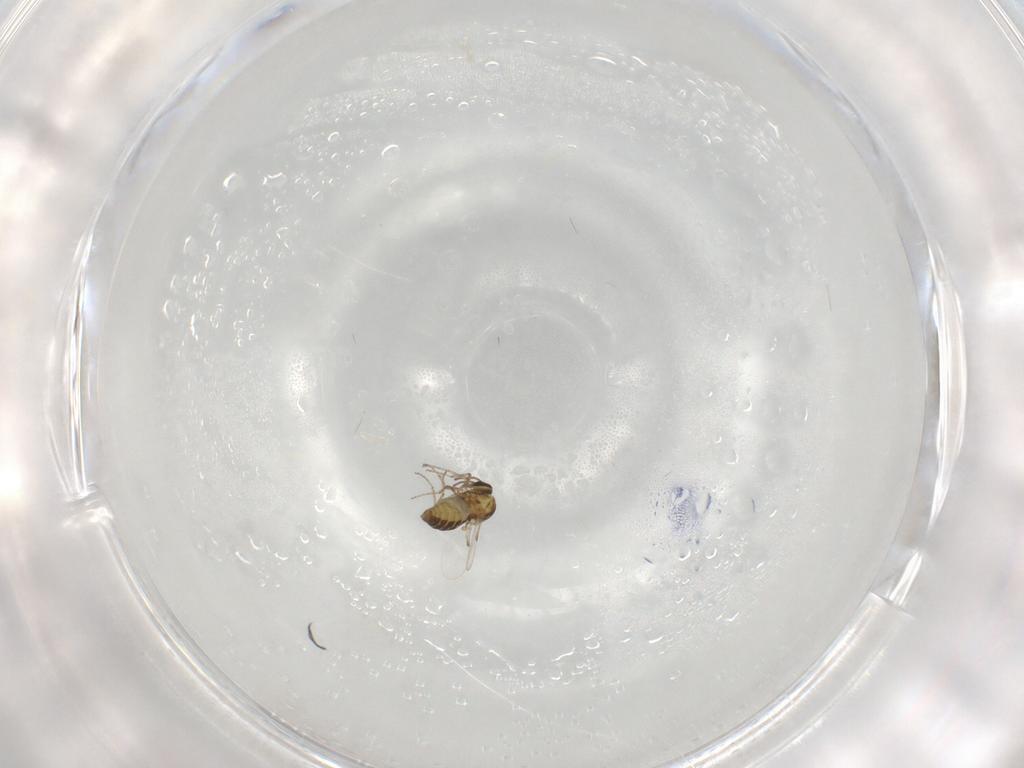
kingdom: Animalia
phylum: Arthropoda
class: Insecta
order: Diptera
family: Ceratopogonidae
